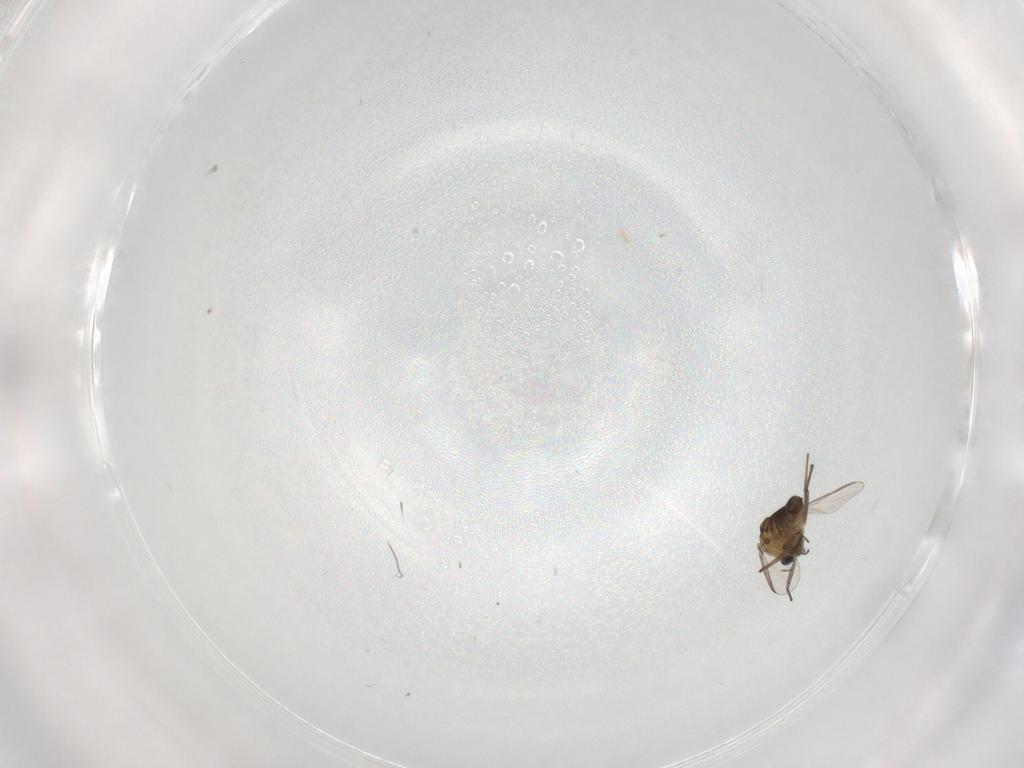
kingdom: Animalia
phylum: Arthropoda
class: Insecta
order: Diptera
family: Chironomidae
